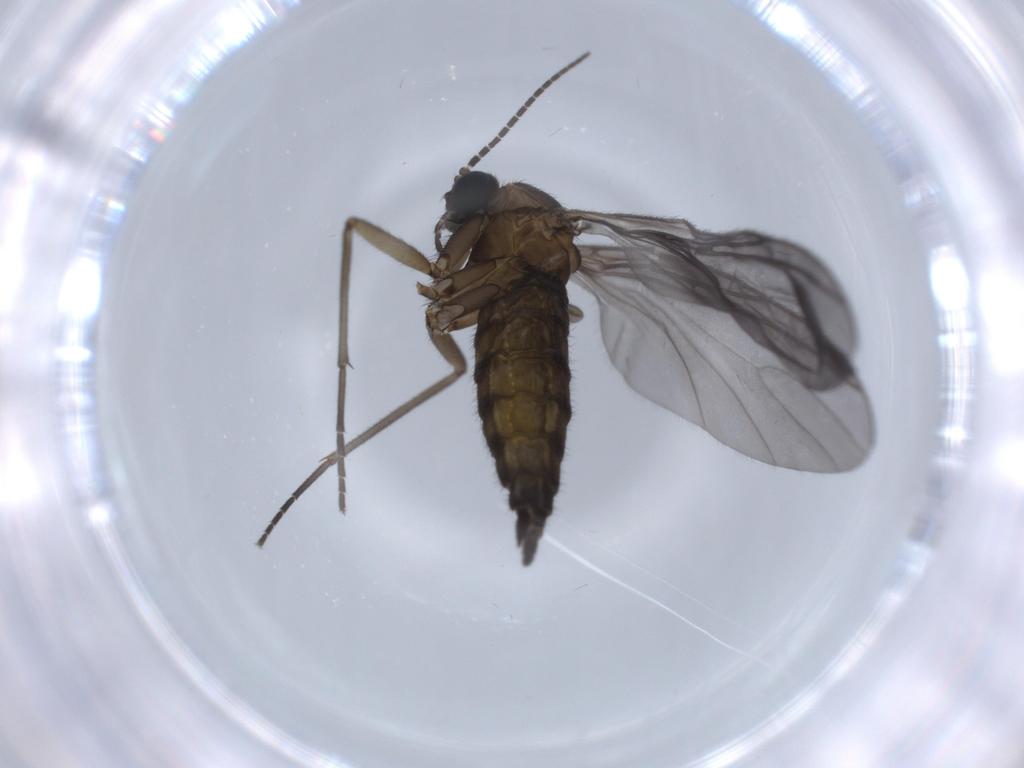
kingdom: Animalia
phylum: Arthropoda
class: Insecta
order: Diptera
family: Sciaridae
